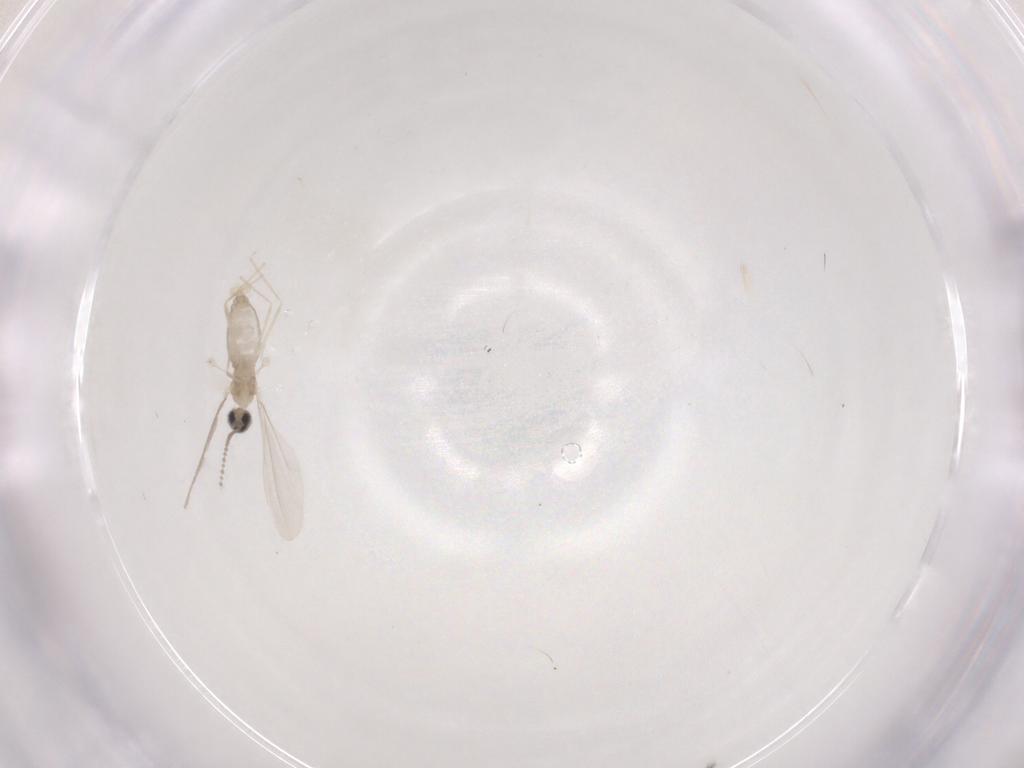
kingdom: Animalia
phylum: Arthropoda
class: Insecta
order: Diptera
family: Cecidomyiidae
